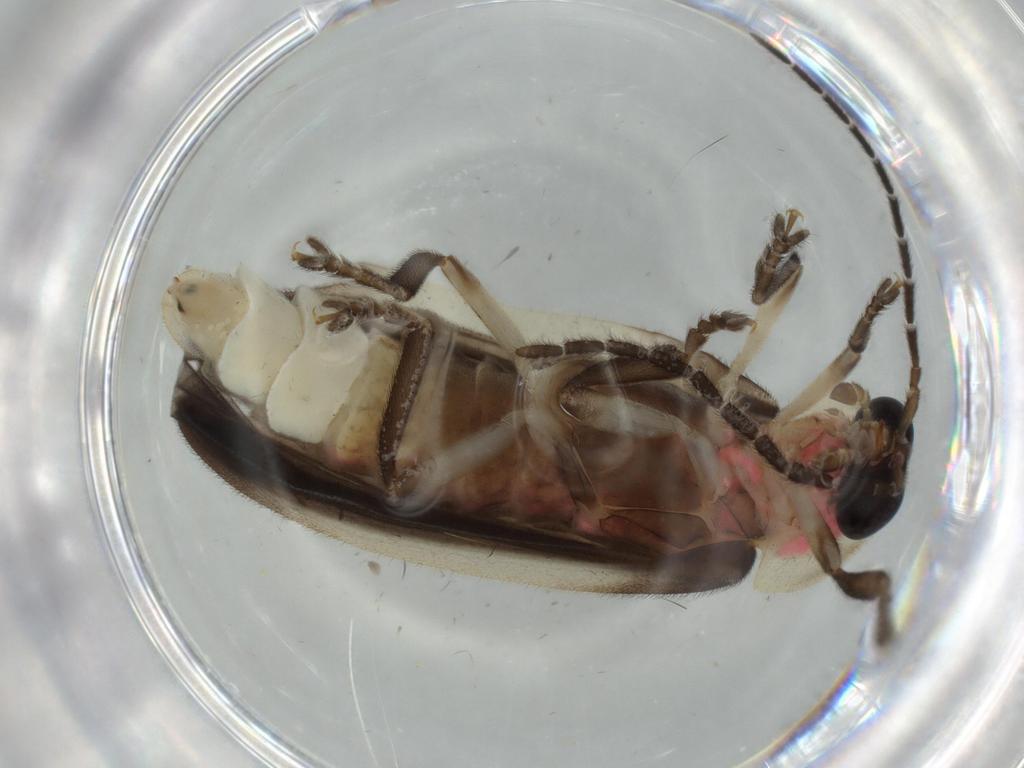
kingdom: Animalia
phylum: Arthropoda
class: Insecta
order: Coleoptera
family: Lampyridae
